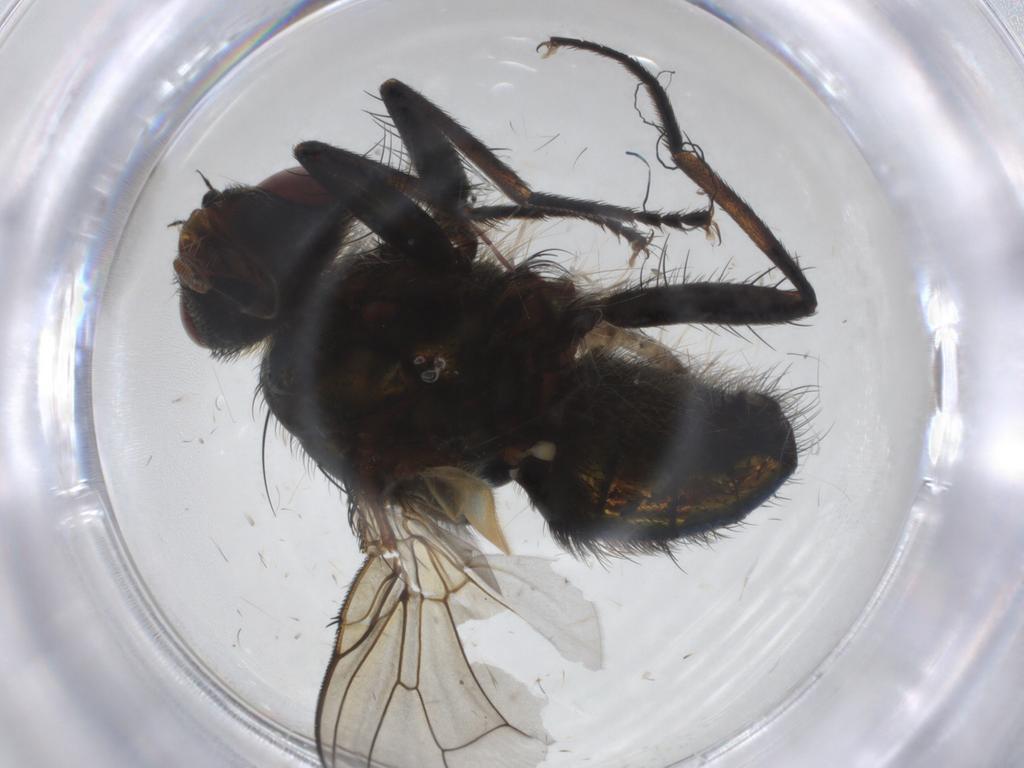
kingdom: Animalia
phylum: Arthropoda
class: Insecta
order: Diptera
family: Calliphoridae
